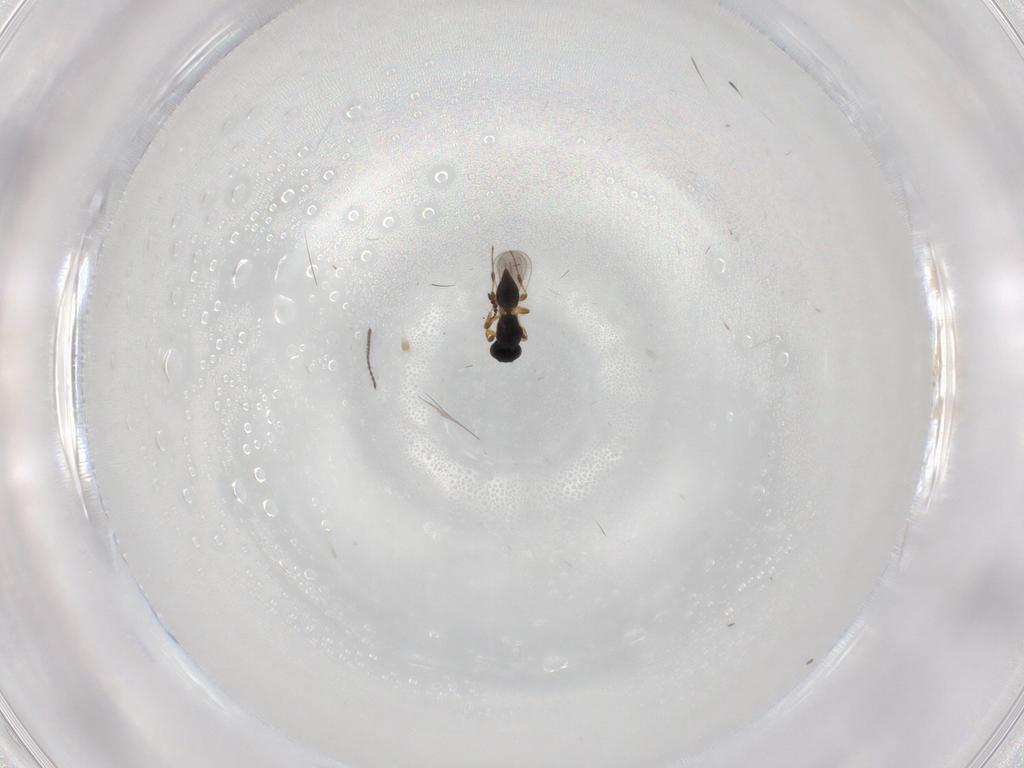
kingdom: Animalia
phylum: Arthropoda
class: Insecta
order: Hymenoptera
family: Platygastridae
